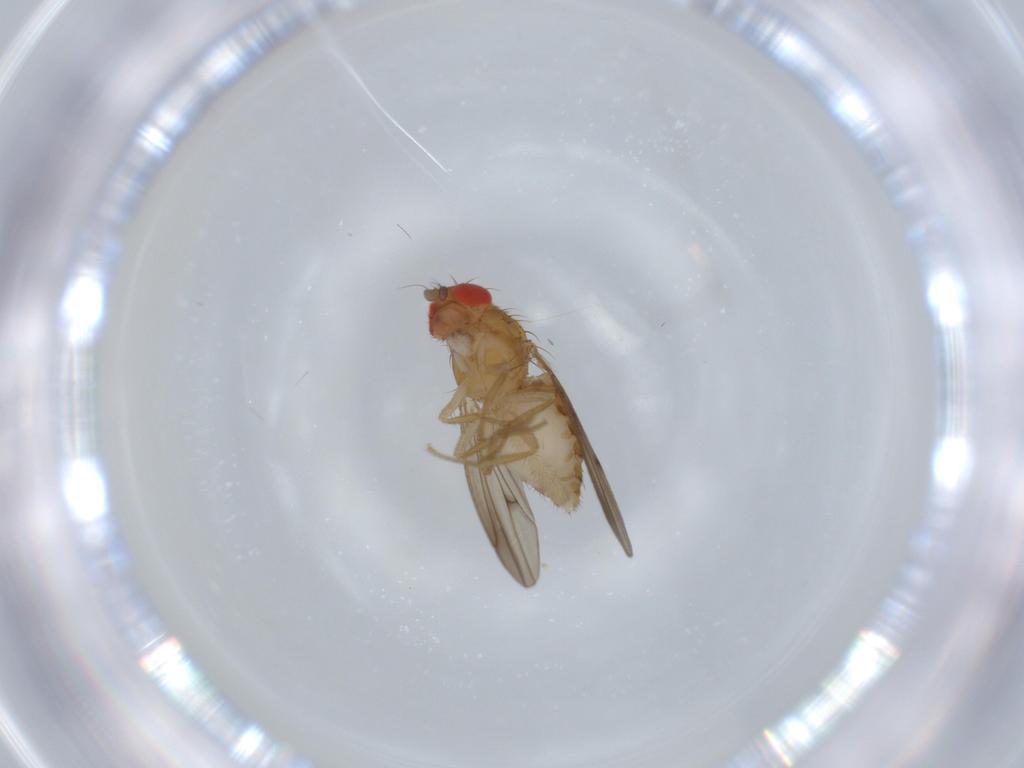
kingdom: Animalia
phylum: Arthropoda
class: Insecta
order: Diptera
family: Drosophilidae
